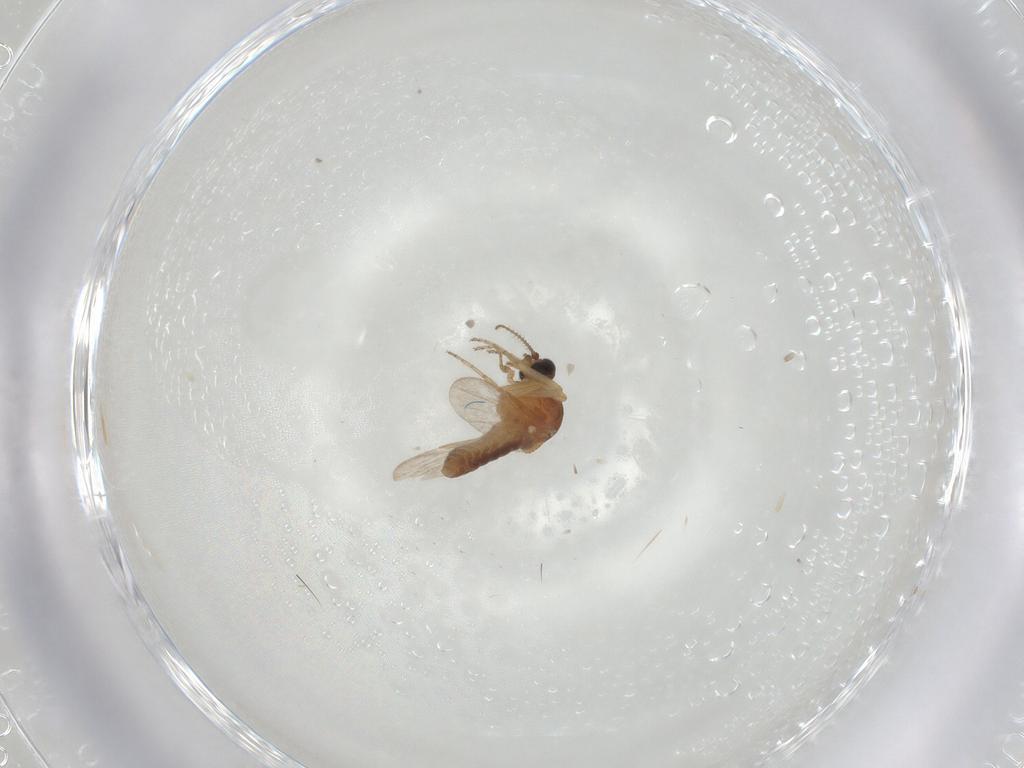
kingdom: Animalia
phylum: Arthropoda
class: Insecta
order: Diptera
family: Ceratopogonidae
